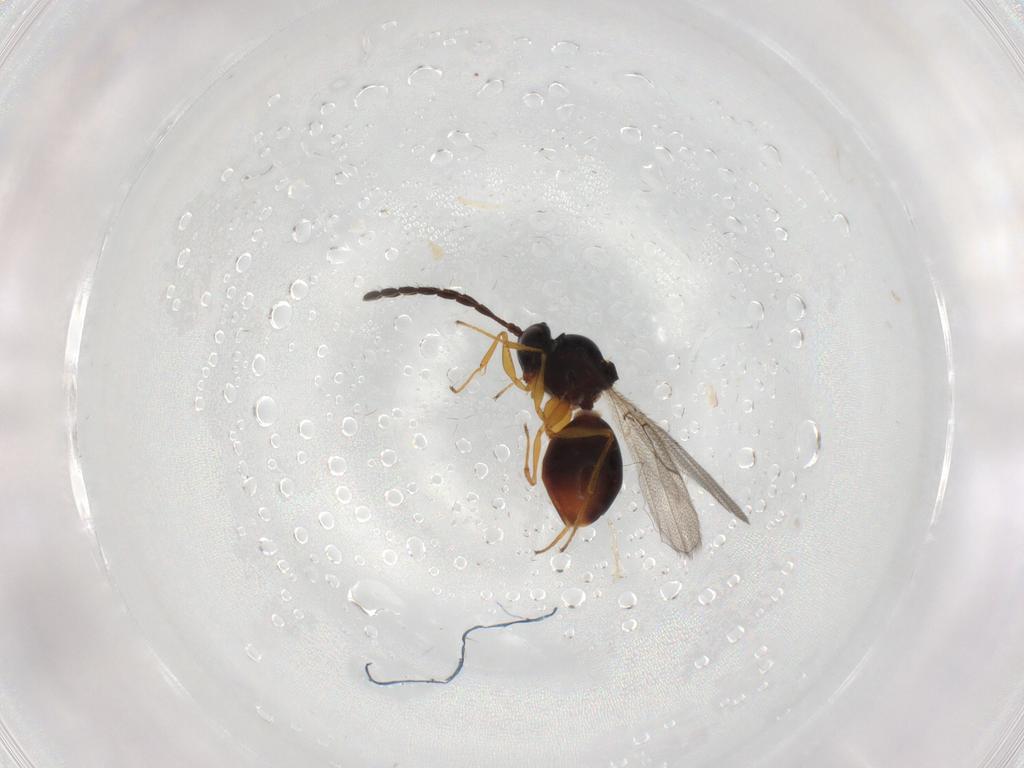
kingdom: Animalia
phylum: Arthropoda
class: Insecta
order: Hymenoptera
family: Figitidae
